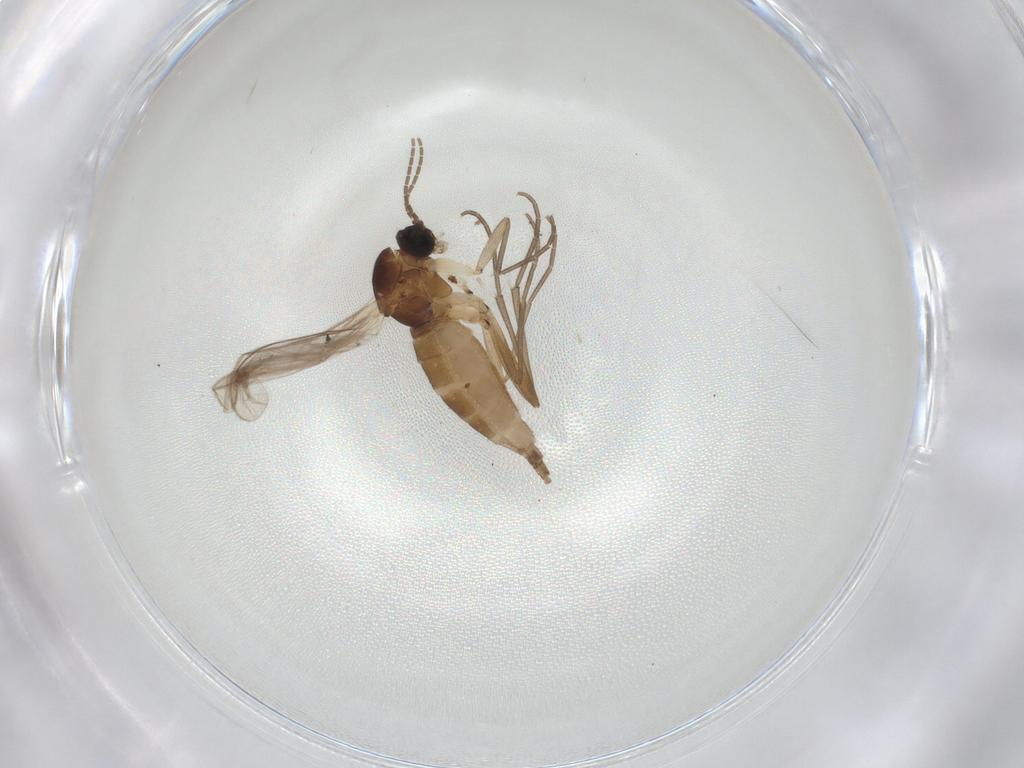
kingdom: Animalia
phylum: Arthropoda
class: Insecta
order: Diptera
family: Sciaridae
